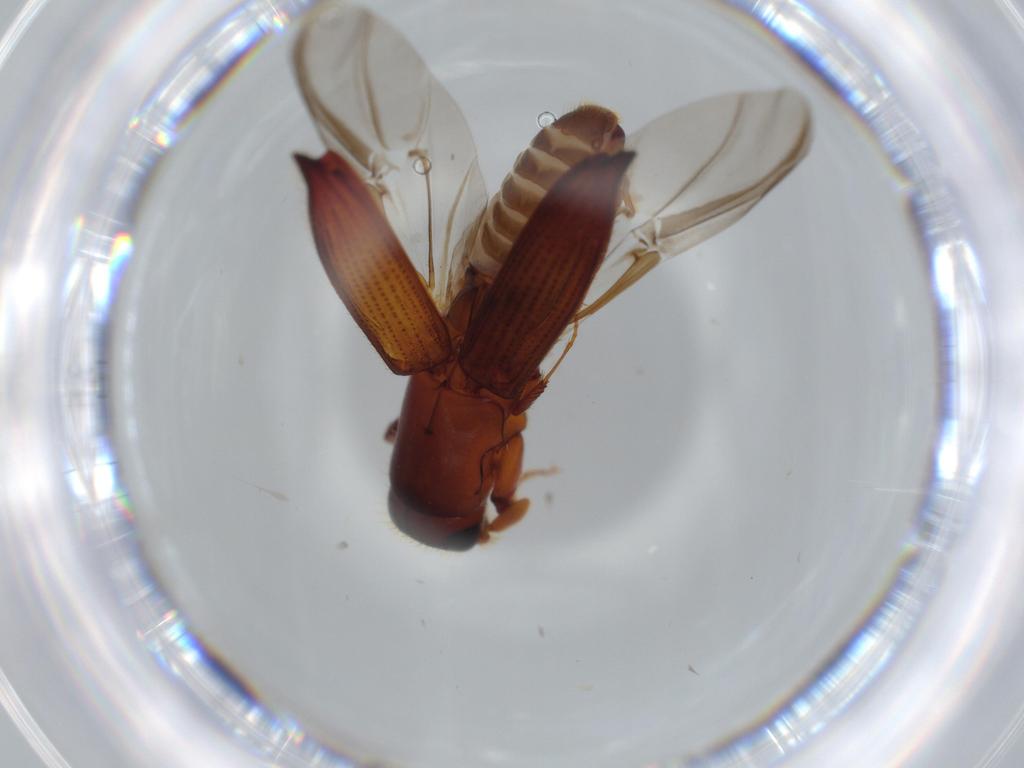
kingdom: Animalia
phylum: Arthropoda
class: Insecta
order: Coleoptera
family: Curculionidae
